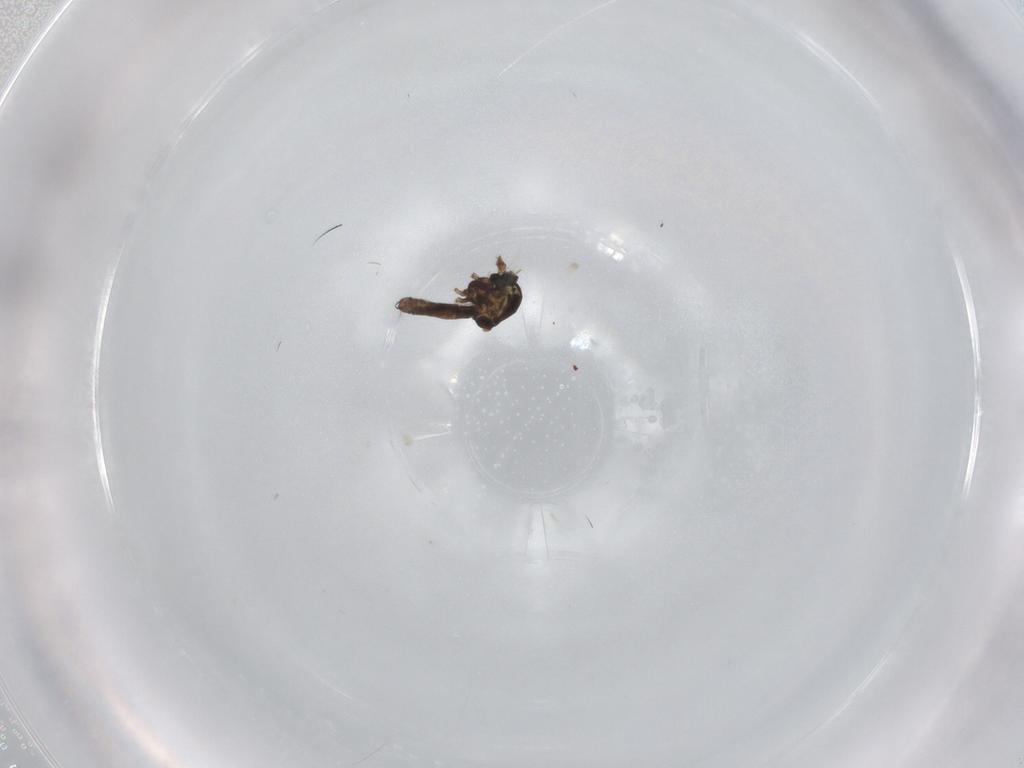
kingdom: Animalia
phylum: Arthropoda
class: Insecta
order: Diptera
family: Ceratopogonidae
